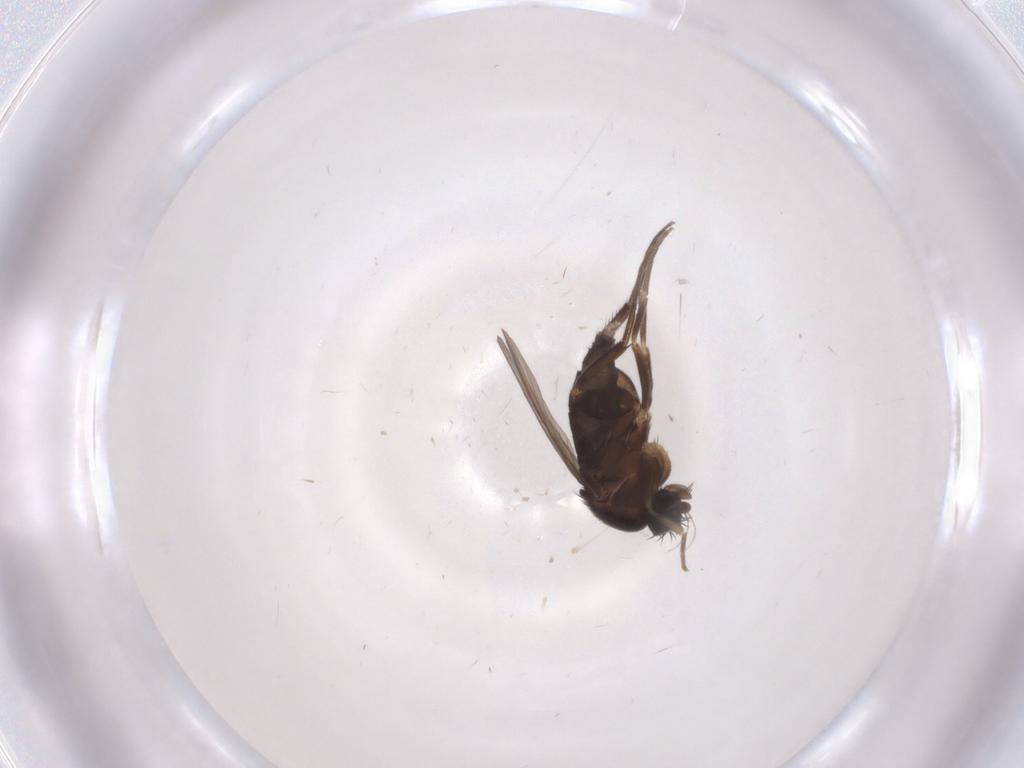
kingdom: Animalia
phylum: Arthropoda
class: Insecta
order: Diptera
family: Phoridae
